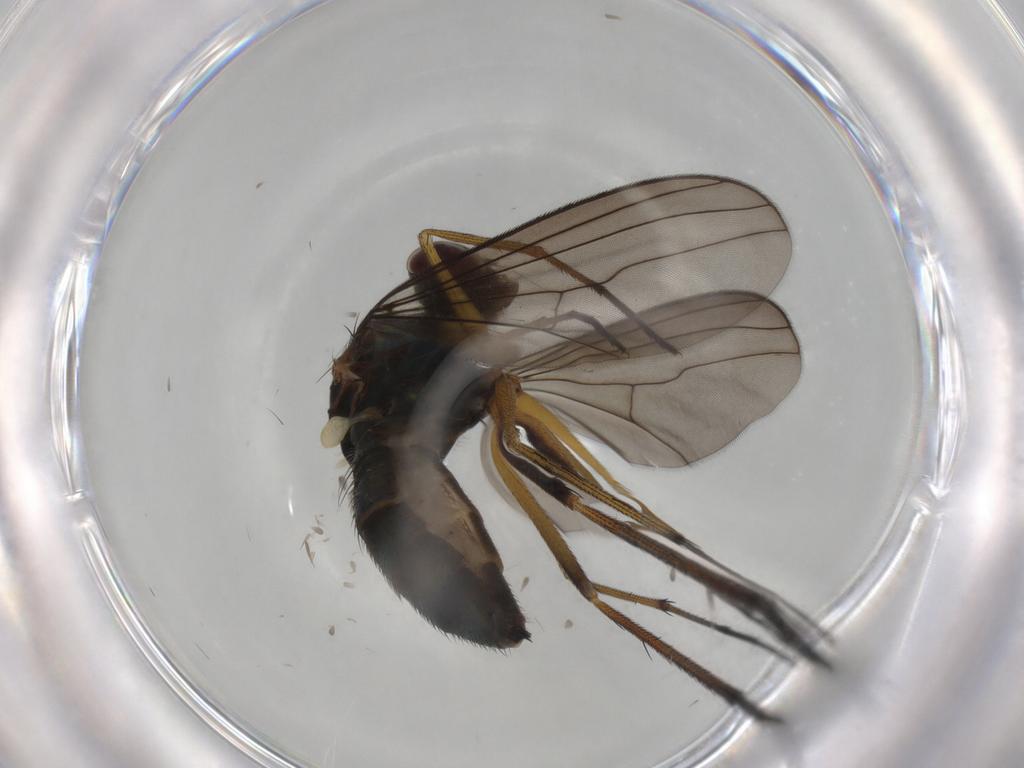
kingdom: Animalia
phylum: Arthropoda
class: Insecta
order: Diptera
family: Dolichopodidae
